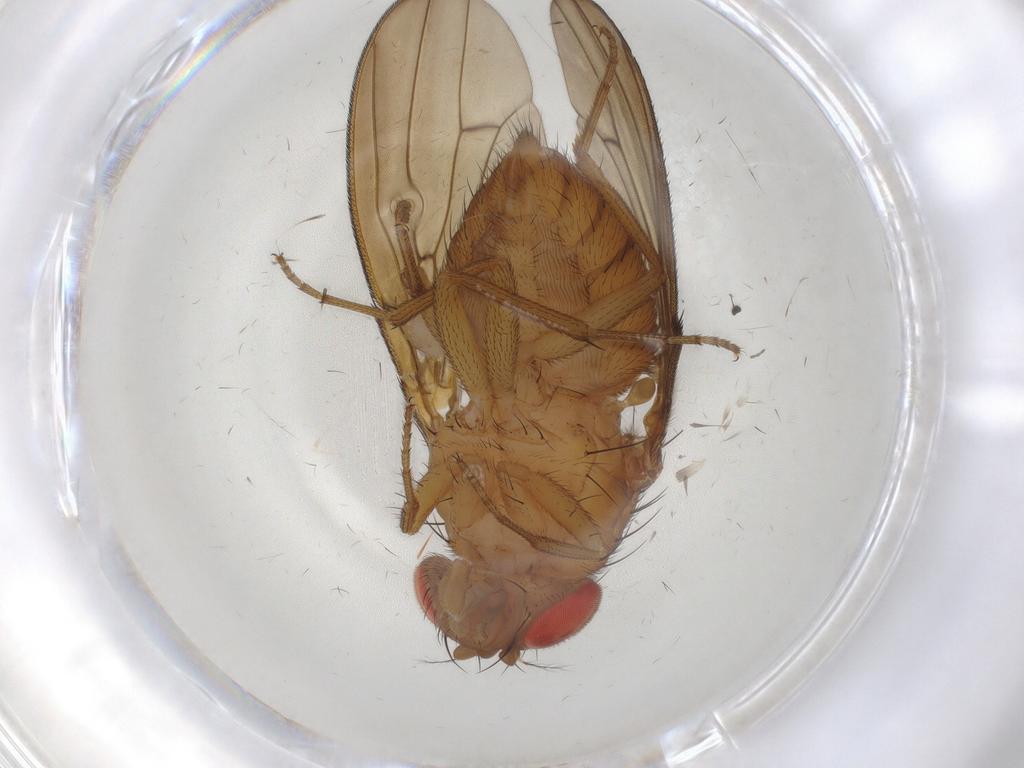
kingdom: Animalia
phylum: Arthropoda
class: Insecta
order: Diptera
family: Drosophilidae
